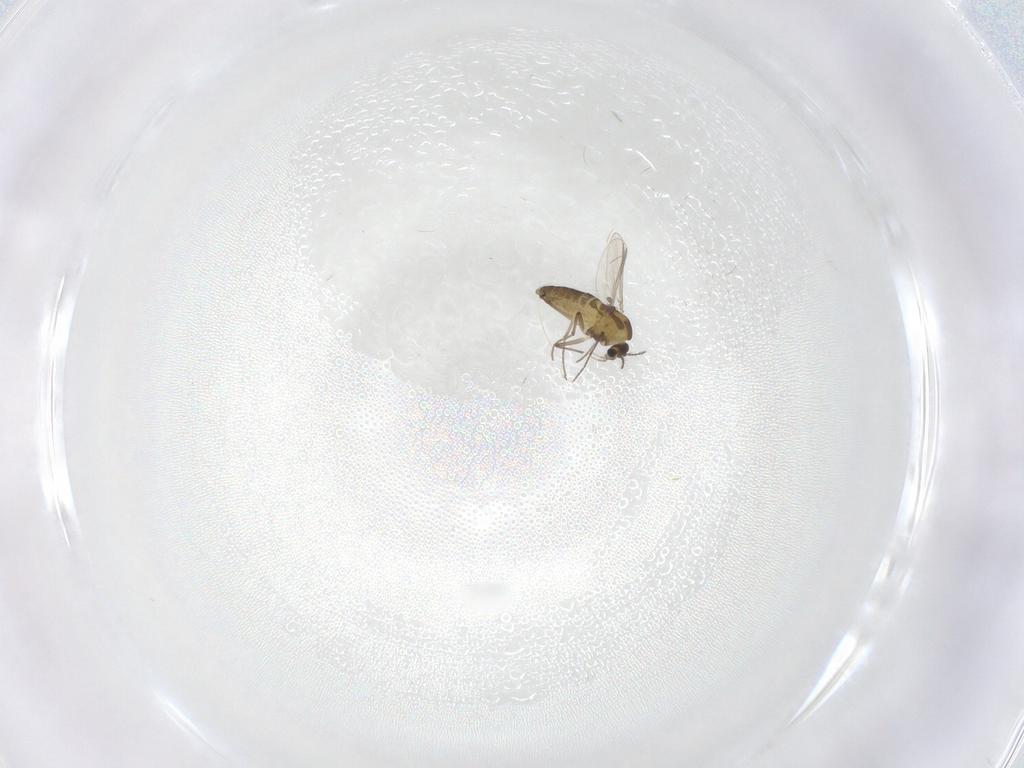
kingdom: Animalia
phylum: Arthropoda
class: Insecta
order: Diptera
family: Chironomidae
